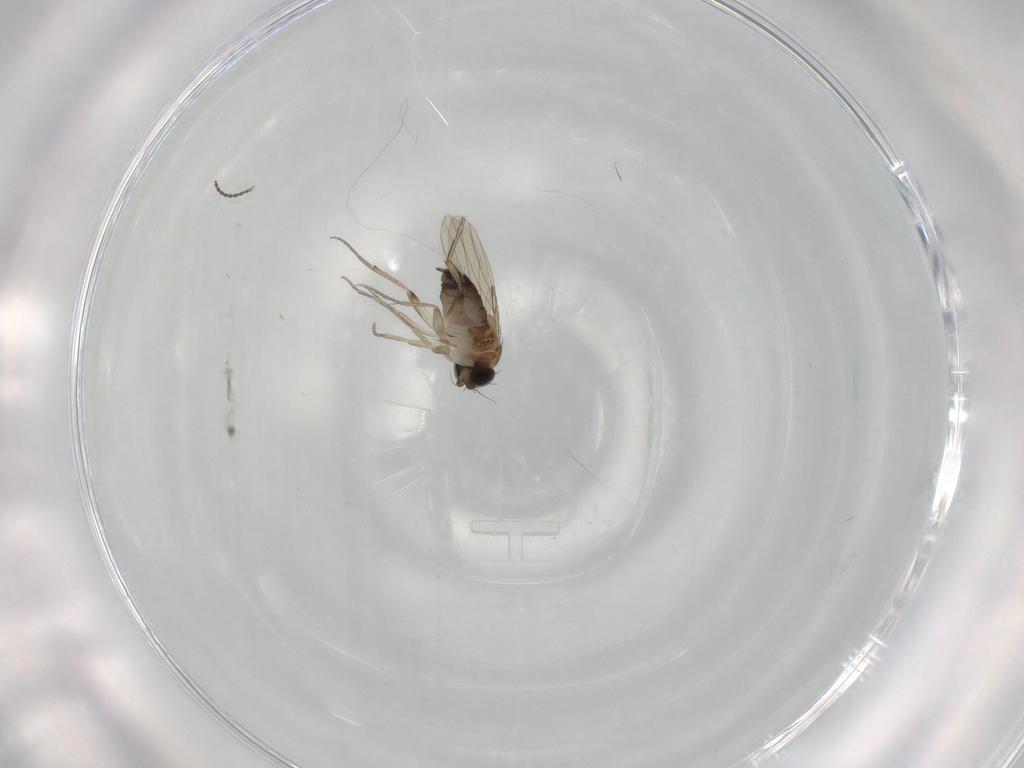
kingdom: Animalia
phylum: Arthropoda
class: Insecta
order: Diptera
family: Phoridae
